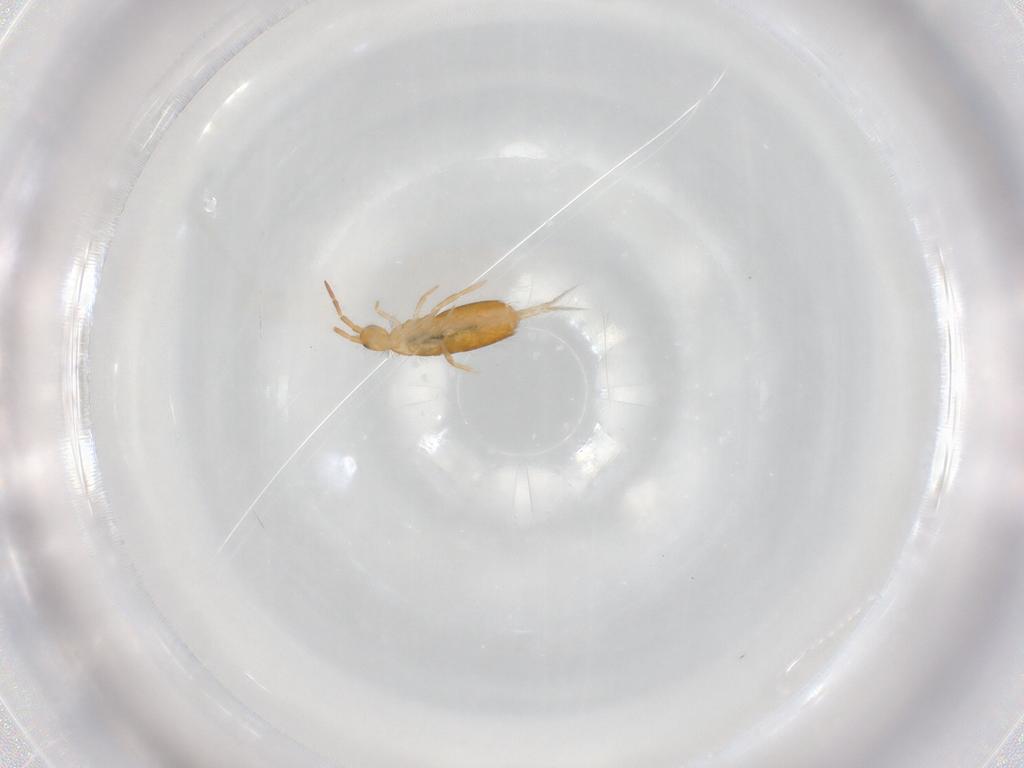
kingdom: Animalia
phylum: Arthropoda
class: Collembola
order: Entomobryomorpha
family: Entomobryidae
